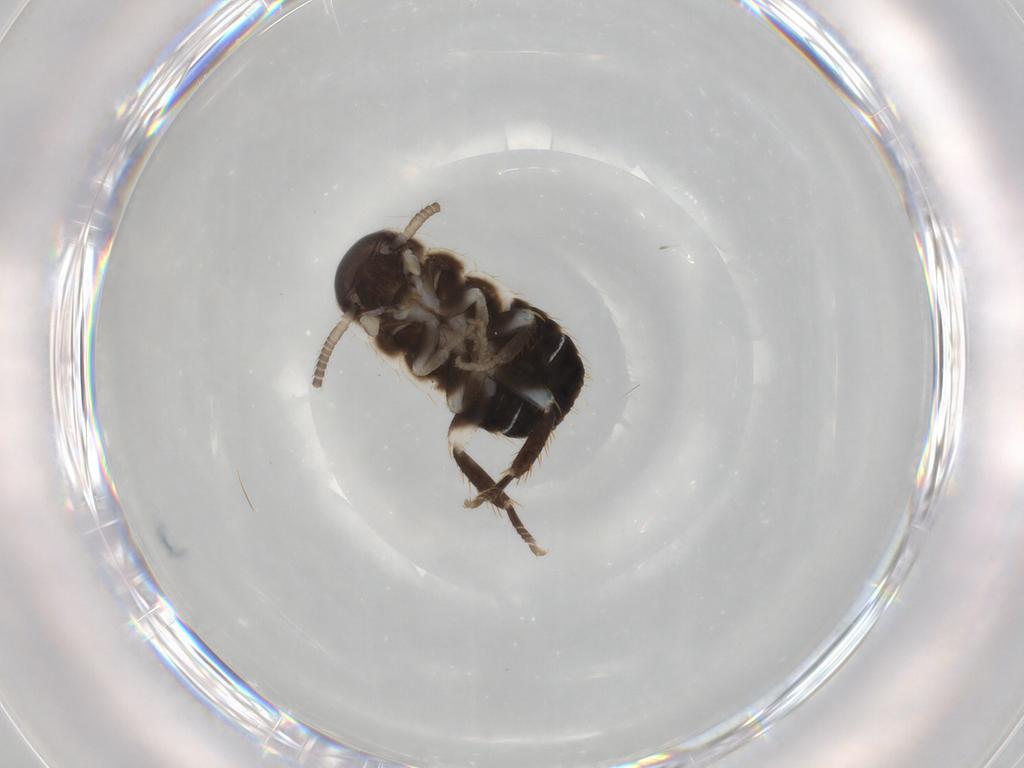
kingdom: Animalia
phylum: Arthropoda
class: Insecta
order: Blattodea
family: Ectobiidae
